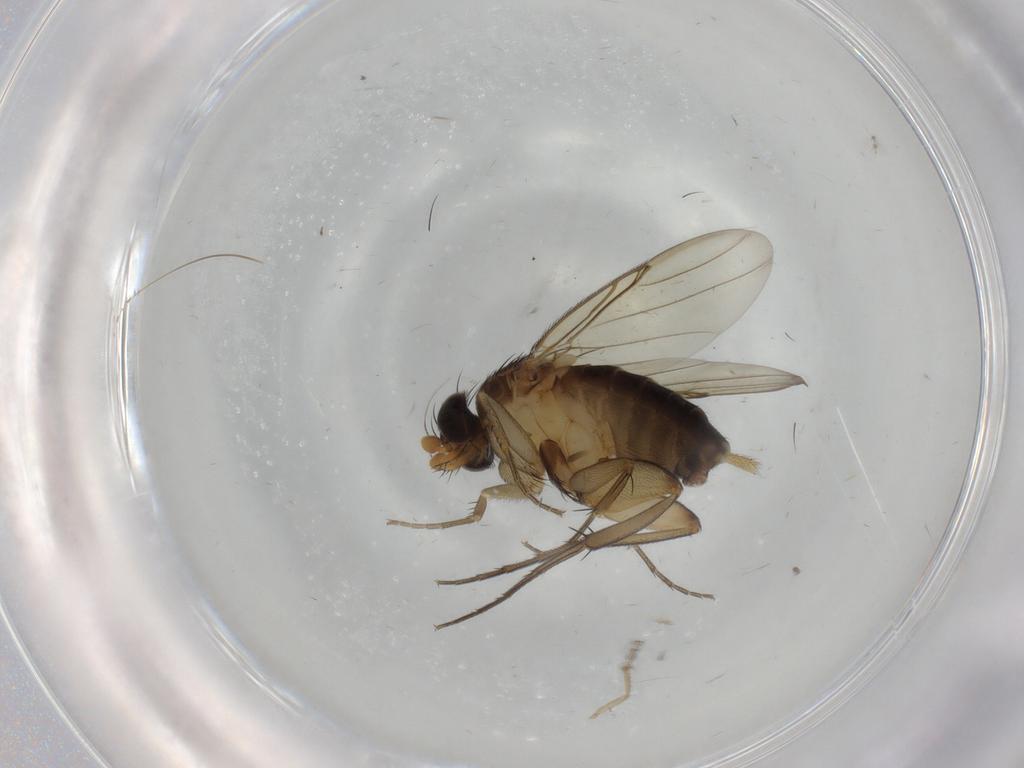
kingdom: Animalia
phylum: Arthropoda
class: Insecta
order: Diptera
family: Phoridae
